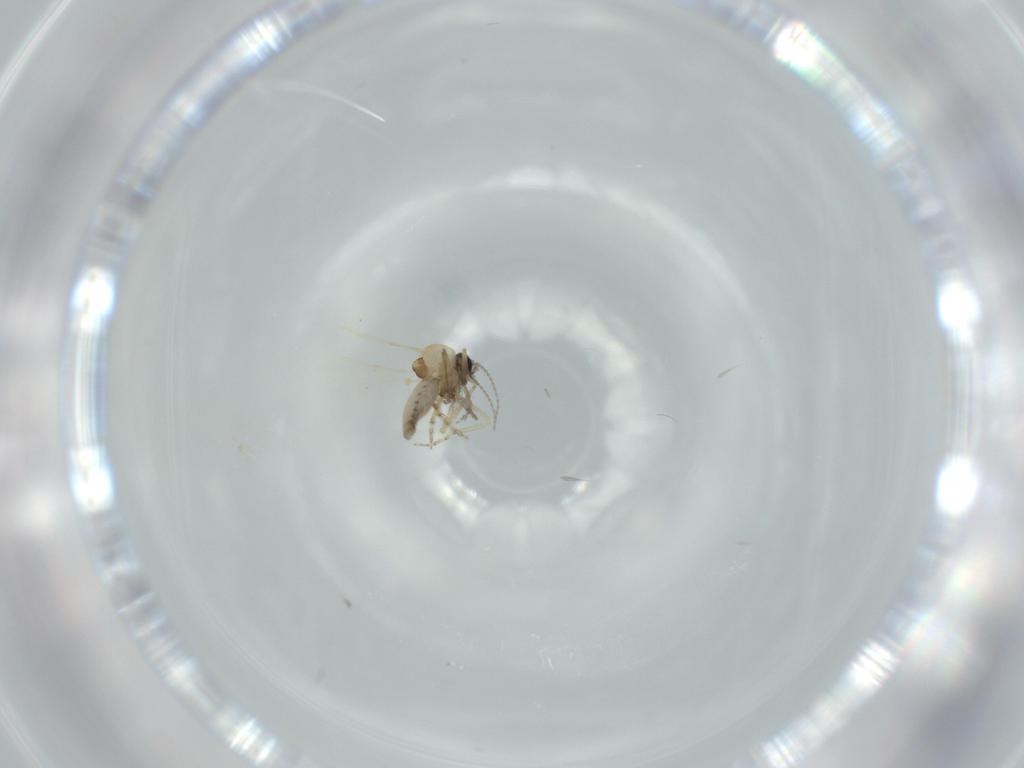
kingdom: Animalia
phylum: Arthropoda
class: Insecta
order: Diptera
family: Ceratopogonidae
